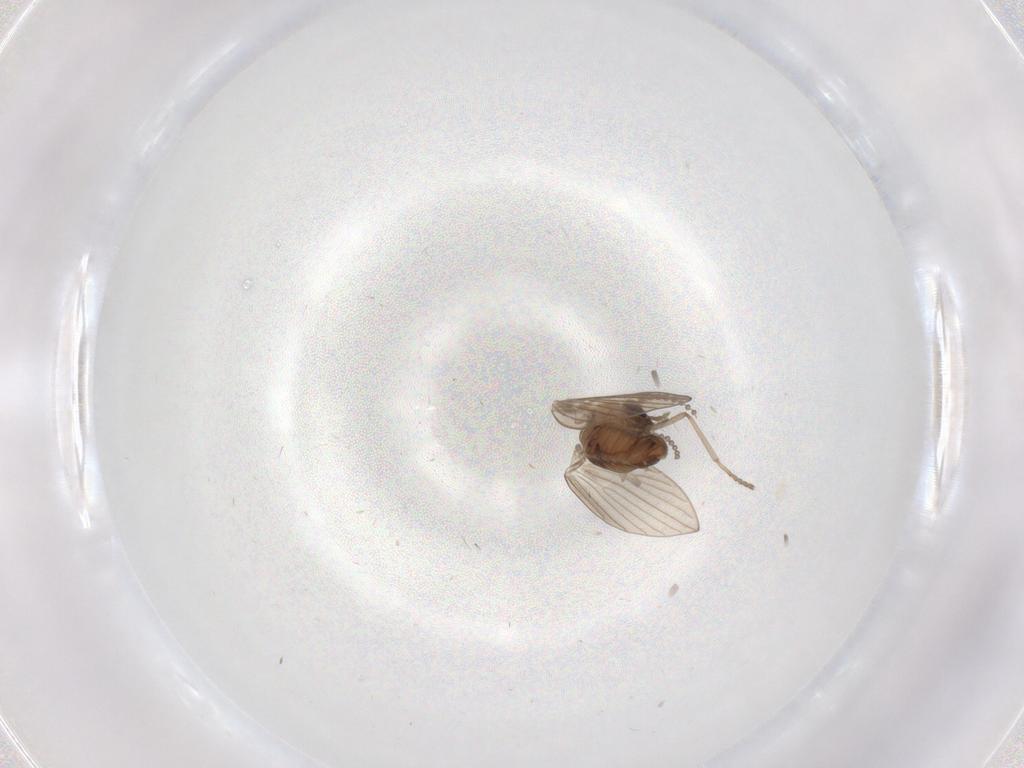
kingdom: Animalia
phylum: Arthropoda
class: Insecta
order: Diptera
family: Psychodidae
